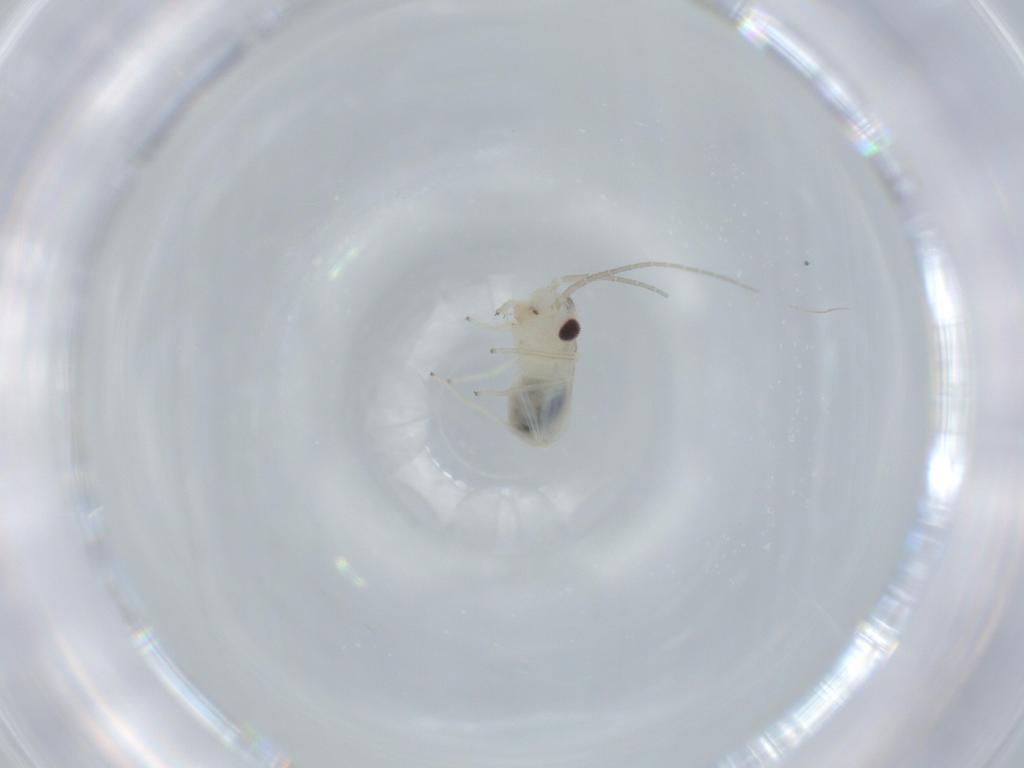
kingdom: Animalia
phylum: Arthropoda
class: Insecta
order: Psocodea
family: Caeciliusidae
